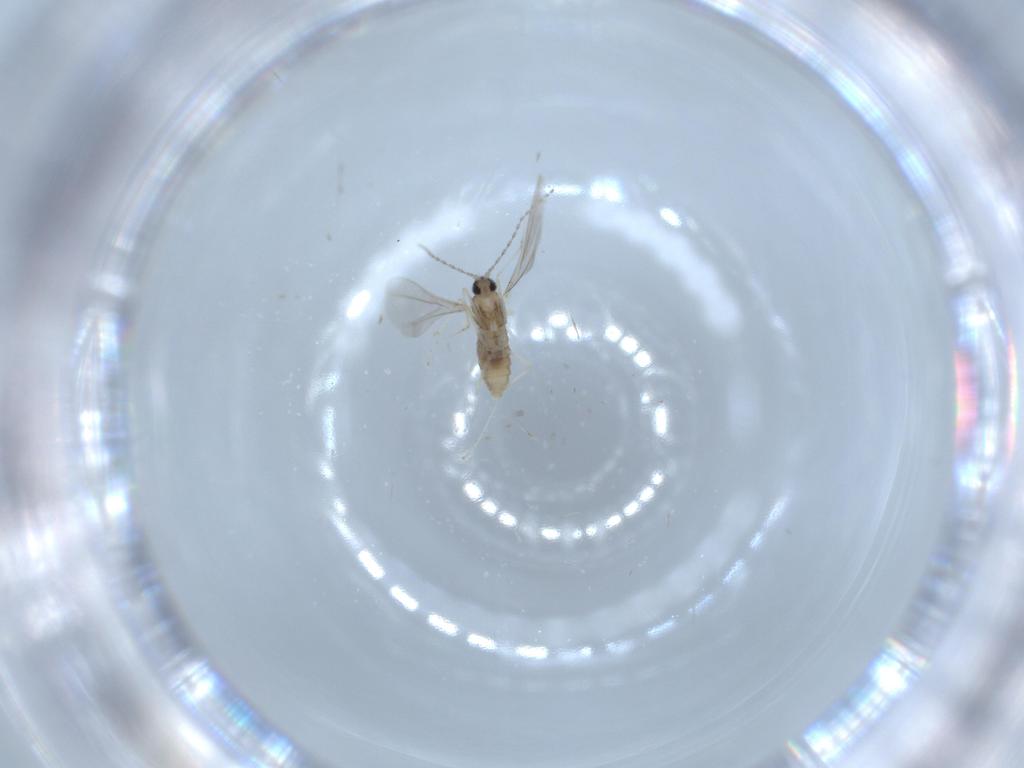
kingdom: Animalia
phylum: Arthropoda
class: Insecta
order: Diptera
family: Cecidomyiidae
